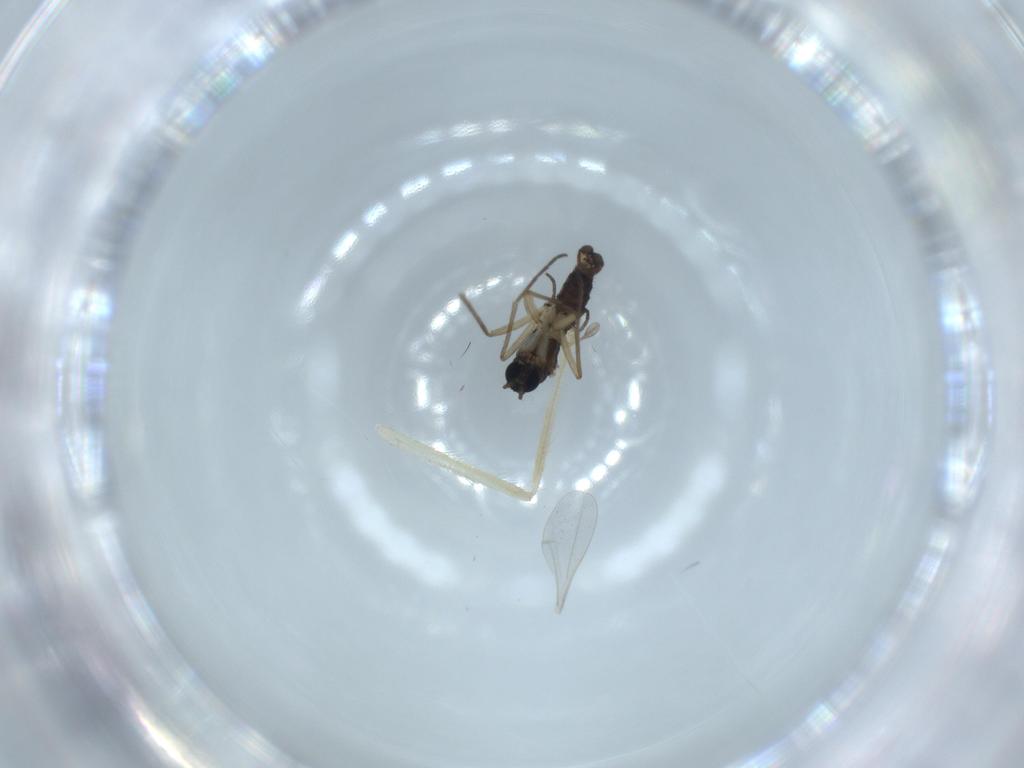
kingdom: Animalia
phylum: Arthropoda
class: Insecta
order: Diptera
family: Sciaridae
